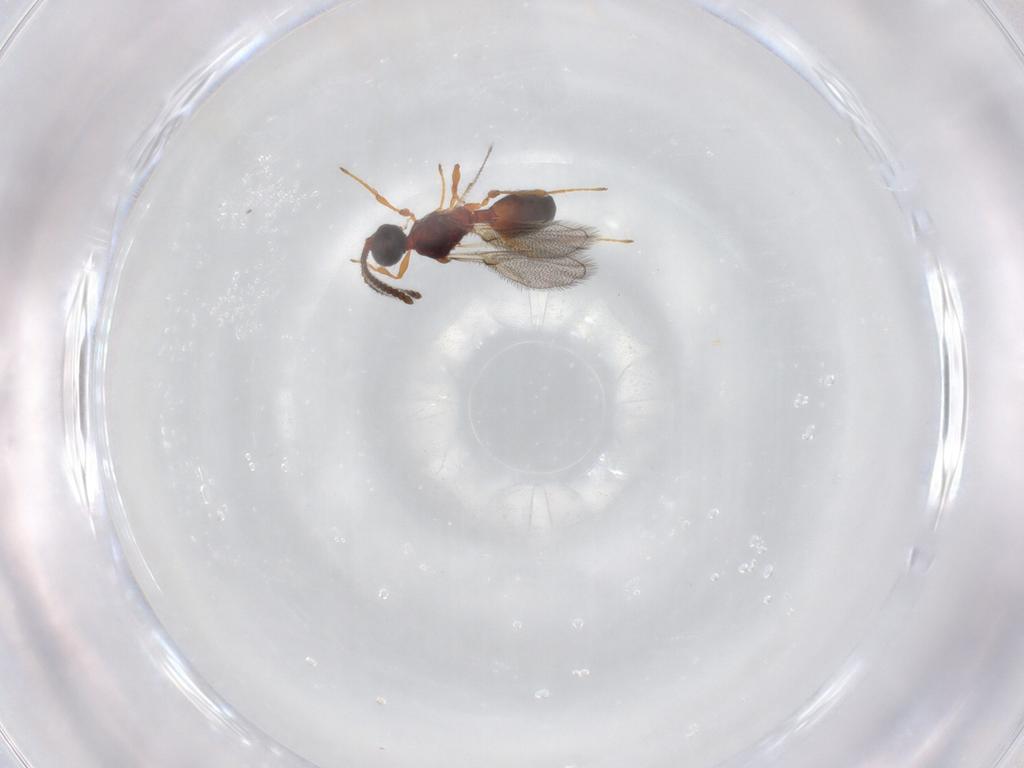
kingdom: Animalia
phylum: Arthropoda
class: Insecta
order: Hymenoptera
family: Diapriidae
